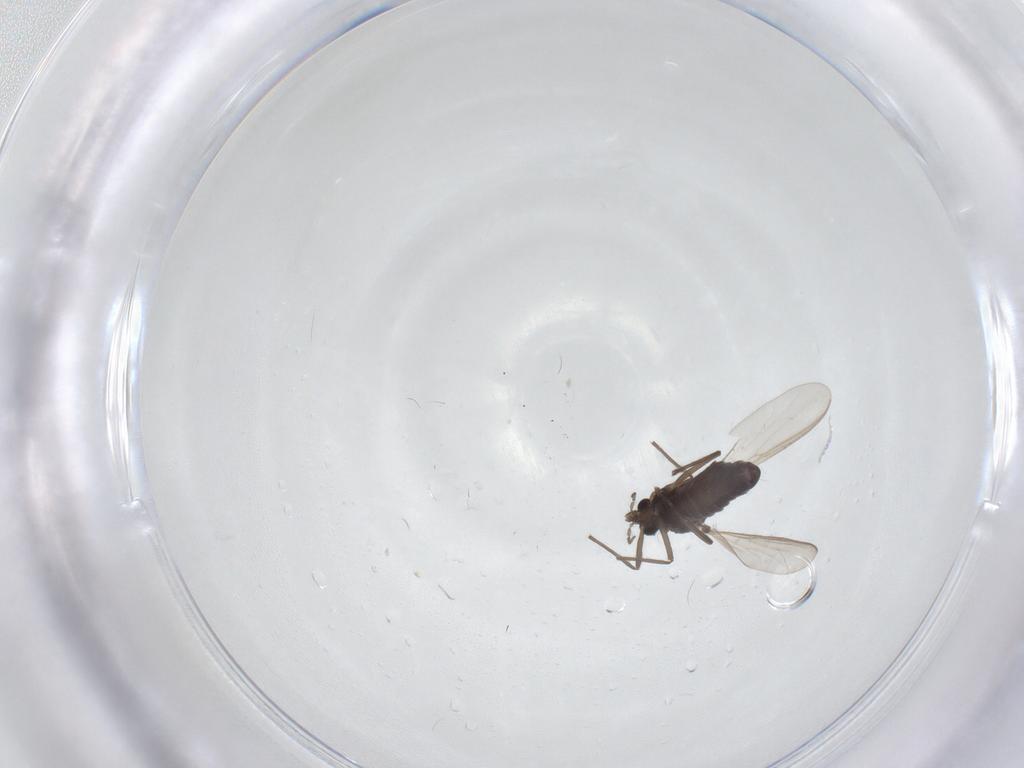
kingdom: Animalia
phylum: Arthropoda
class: Insecta
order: Diptera
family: Chironomidae
